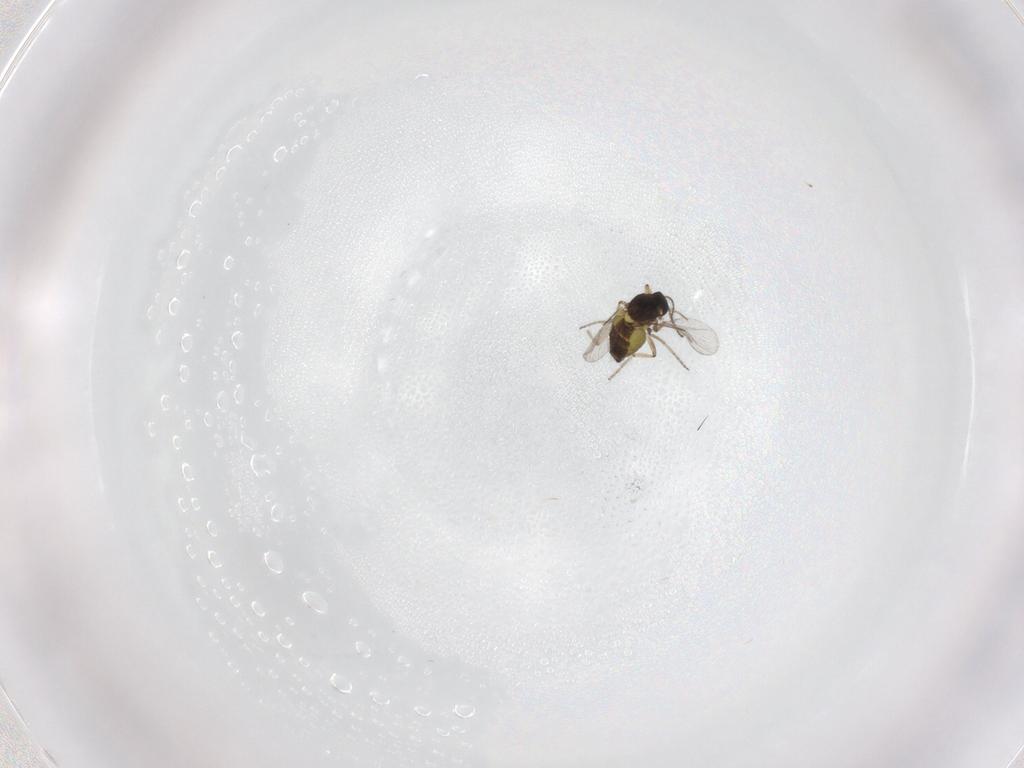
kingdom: Animalia
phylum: Arthropoda
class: Insecta
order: Diptera
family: Ceratopogonidae
